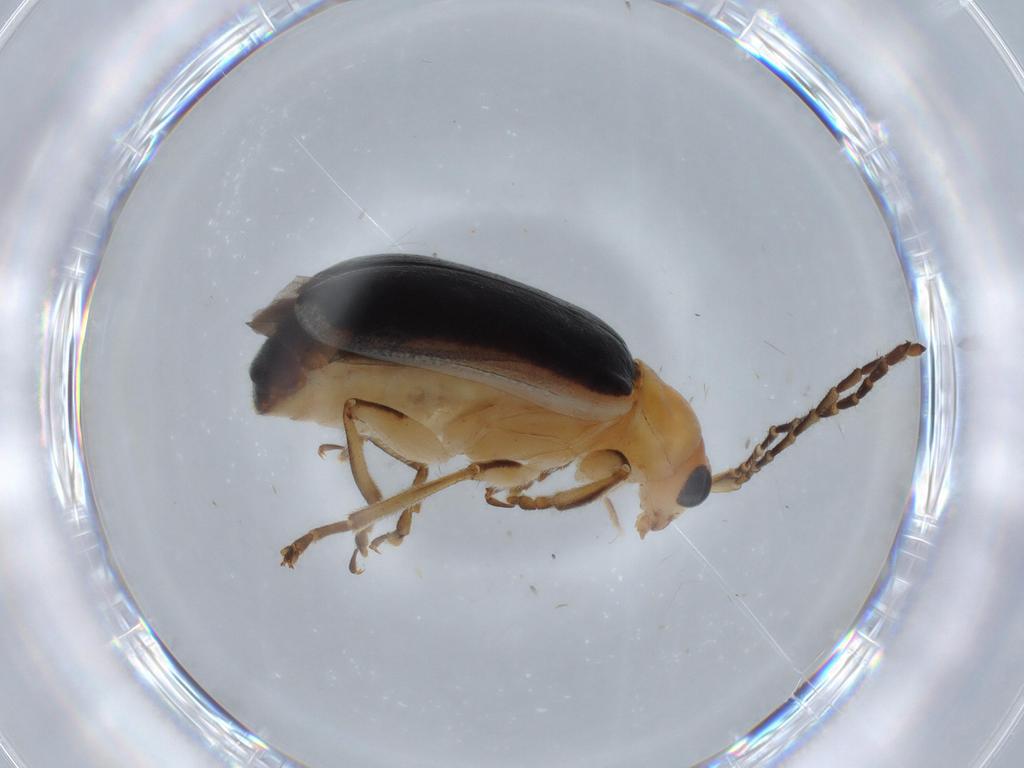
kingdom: Animalia
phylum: Arthropoda
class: Insecta
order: Coleoptera
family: Chrysomelidae
